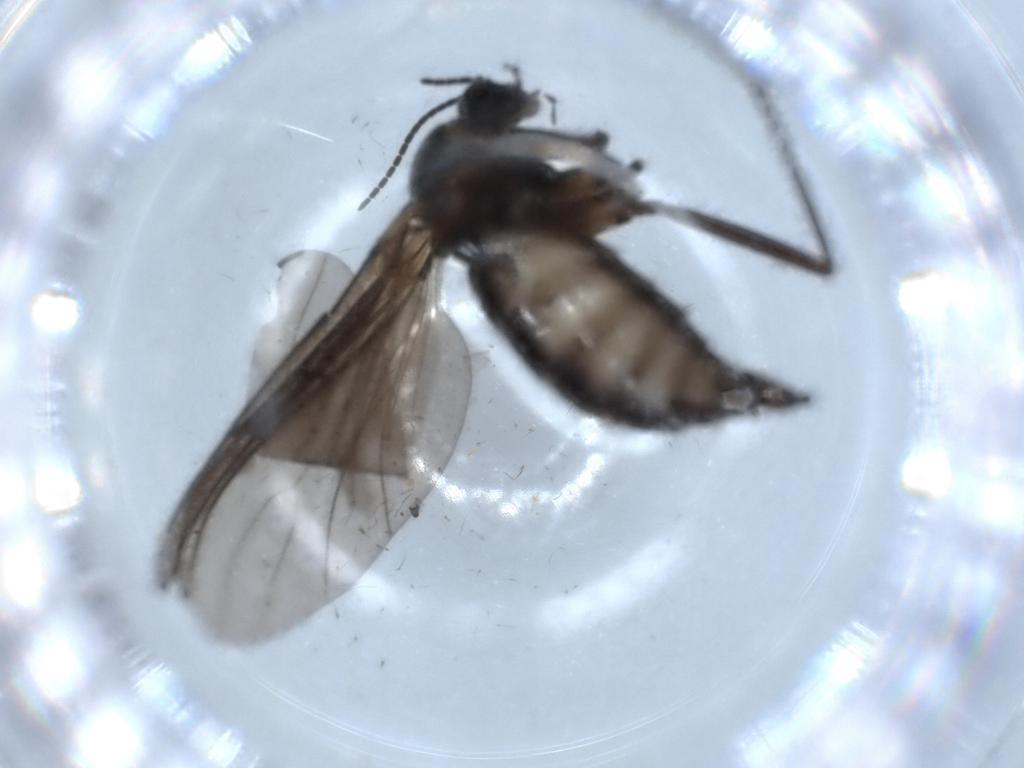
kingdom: Animalia
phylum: Arthropoda
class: Insecta
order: Diptera
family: Sciaridae
